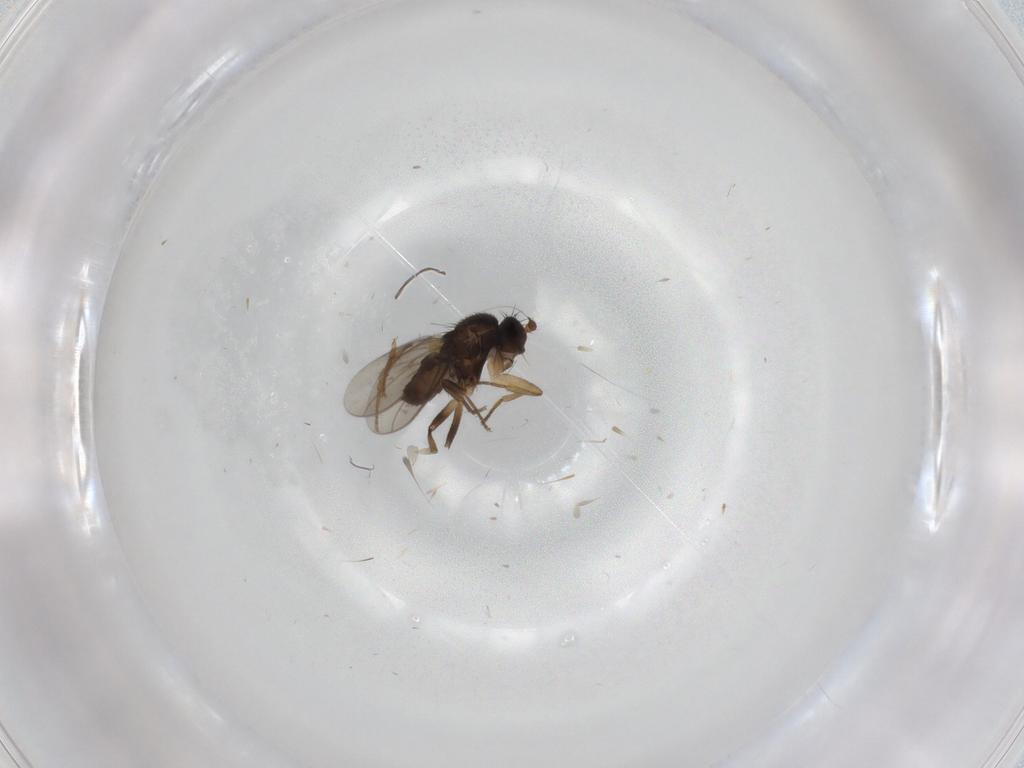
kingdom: Animalia
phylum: Arthropoda
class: Insecta
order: Diptera
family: Sphaeroceridae
